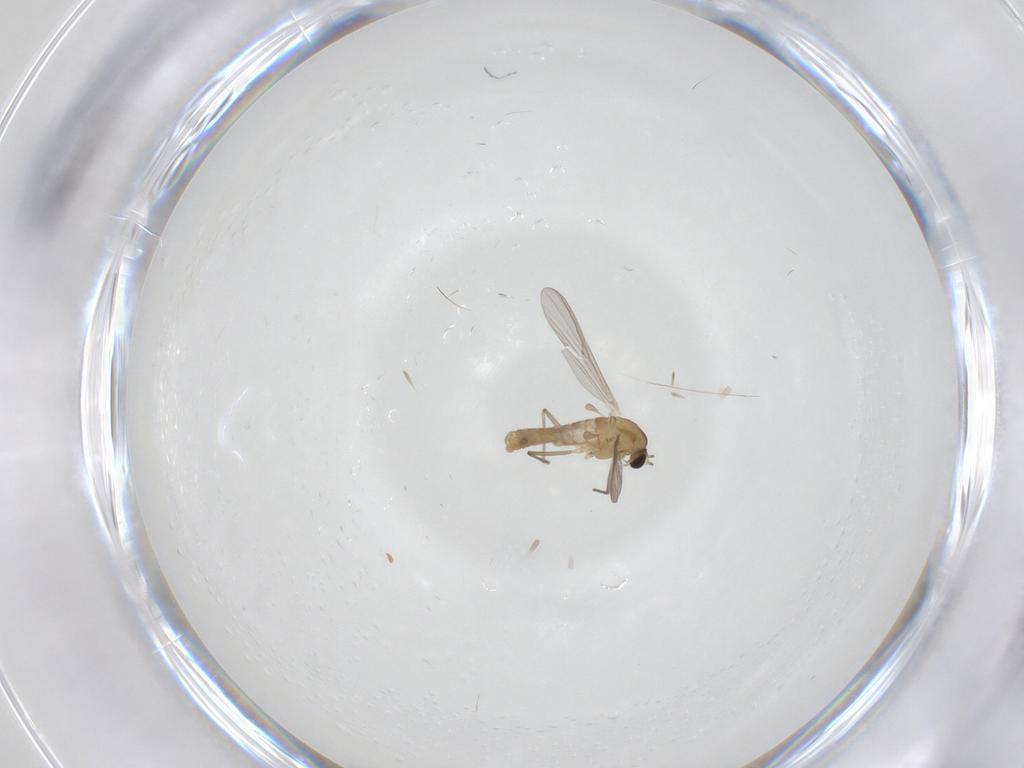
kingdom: Animalia
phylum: Arthropoda
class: Insecta
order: Diptera
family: Chironomidae
